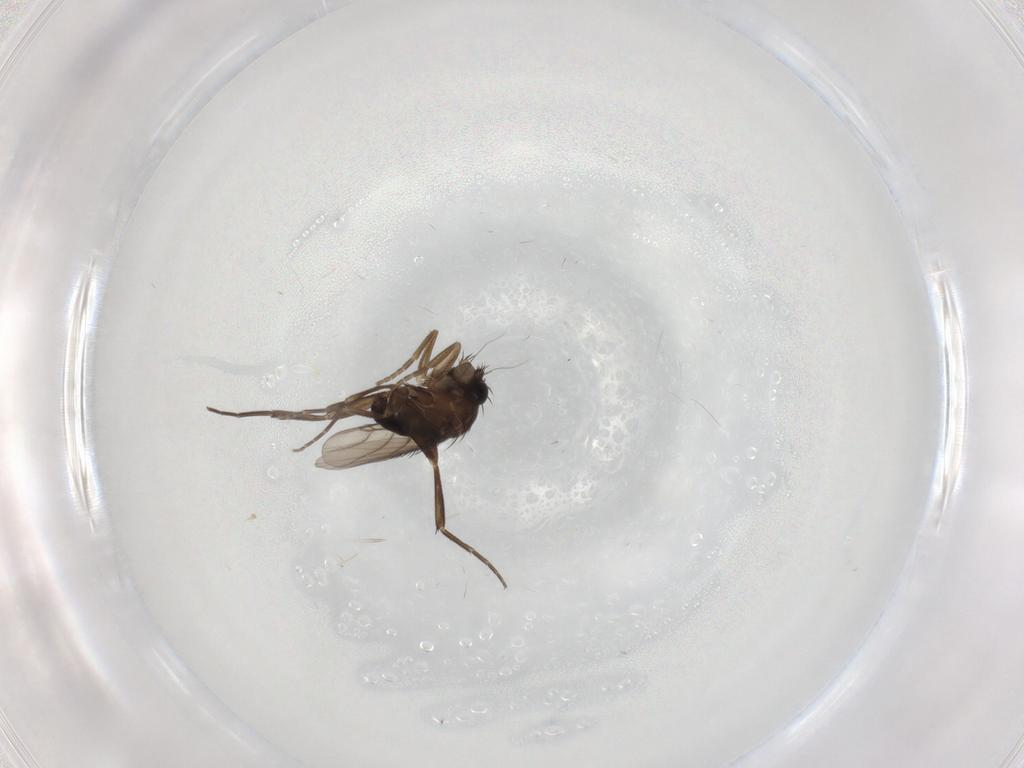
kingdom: Animalia
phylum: Arthropoda
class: Insecta
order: Diptera
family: Phoridae
